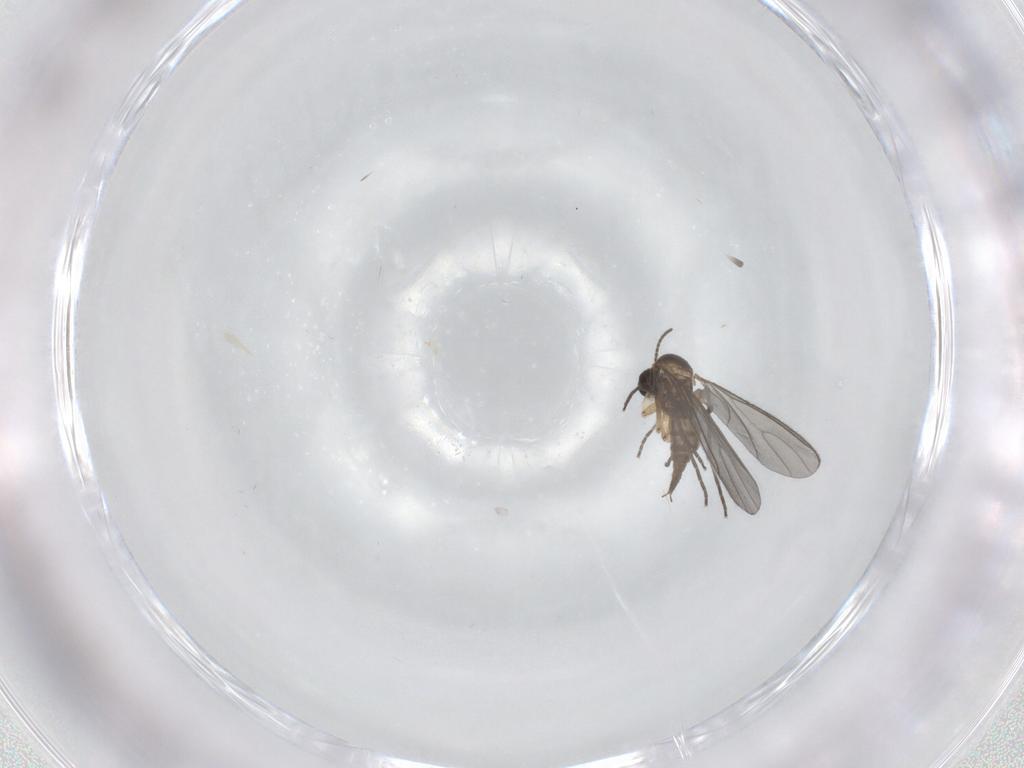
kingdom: Animalia
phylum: Arthropoda
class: Insecta
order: Diptera
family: Sciaridae
